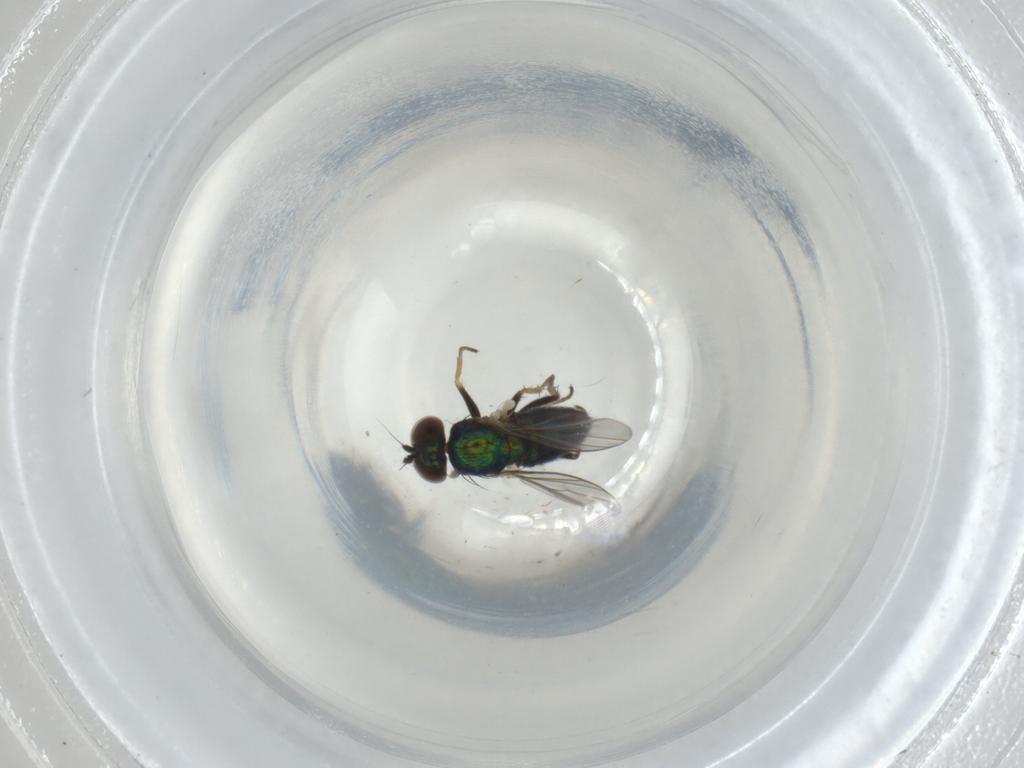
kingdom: Animalia
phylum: Arthropoda
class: Insecta
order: Diptera
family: Dolichopodidae
